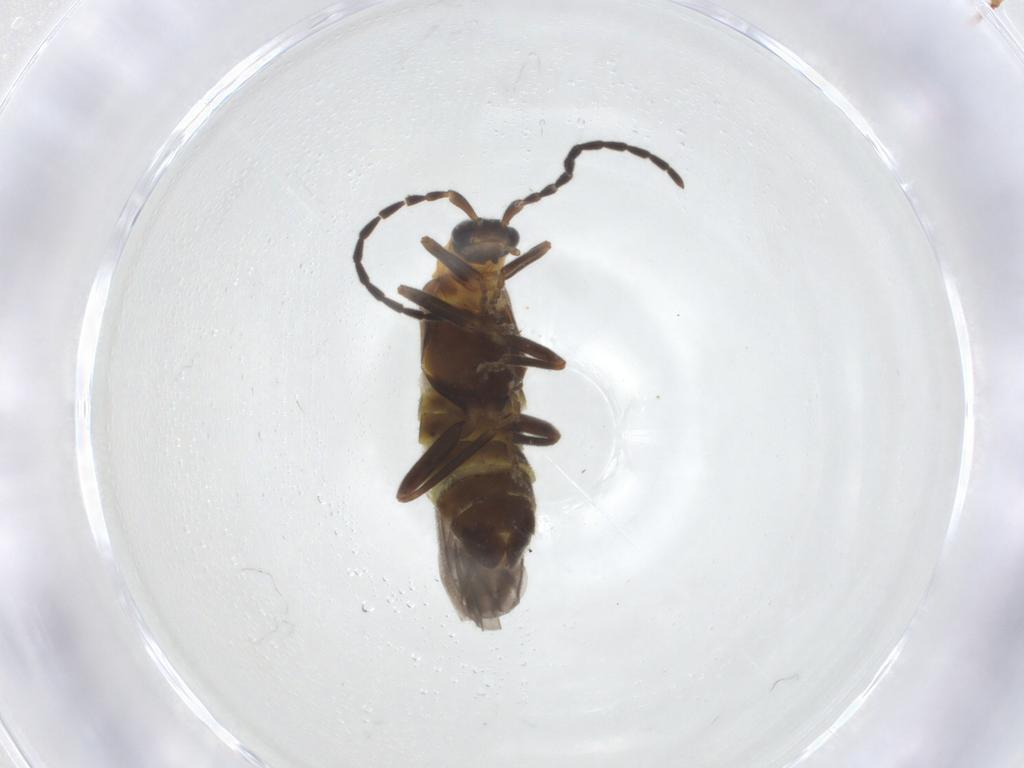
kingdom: Animalia
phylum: Arthropoda
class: Insecta
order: Coleoptera
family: Cantharidae
